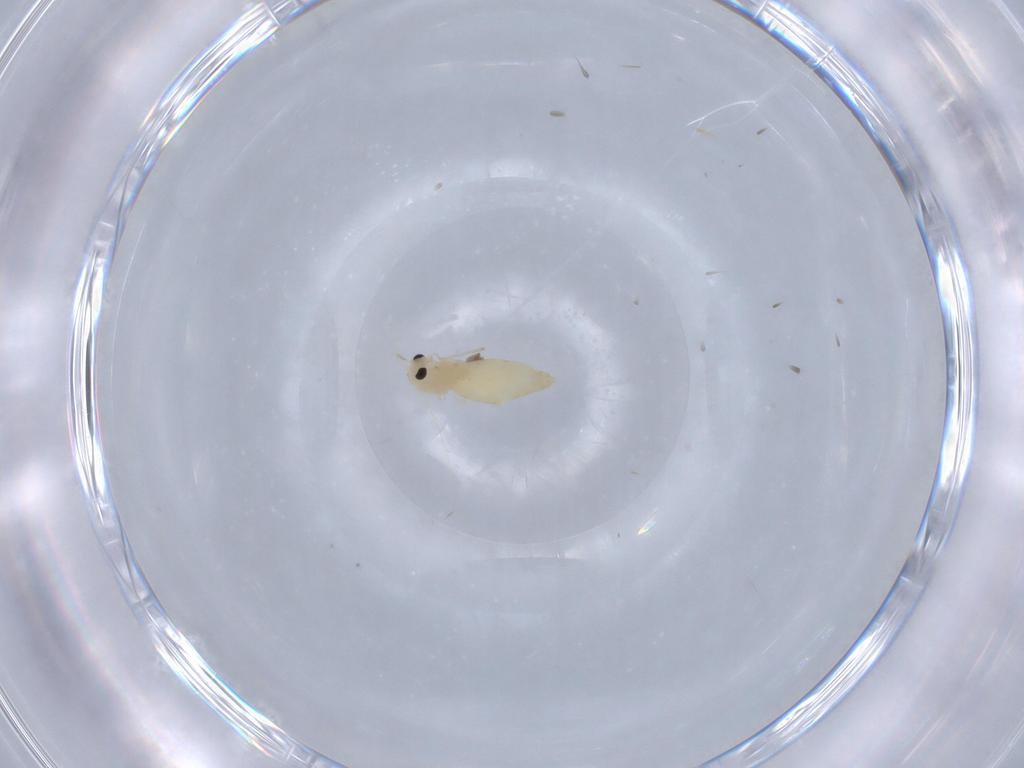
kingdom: Animalia
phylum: Arthropoda
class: Insecta
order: Diptera
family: Chironomidae
